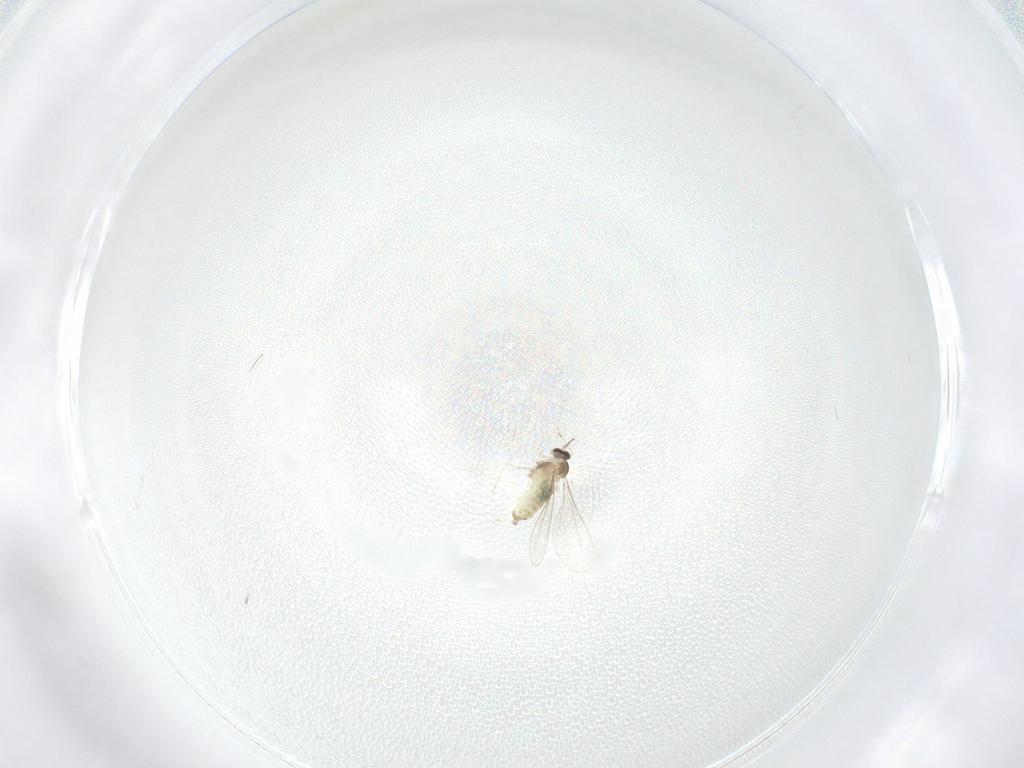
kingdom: Animalia
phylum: Arthropoda
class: Insecta
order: Diptera
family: Cecidomyiidae
